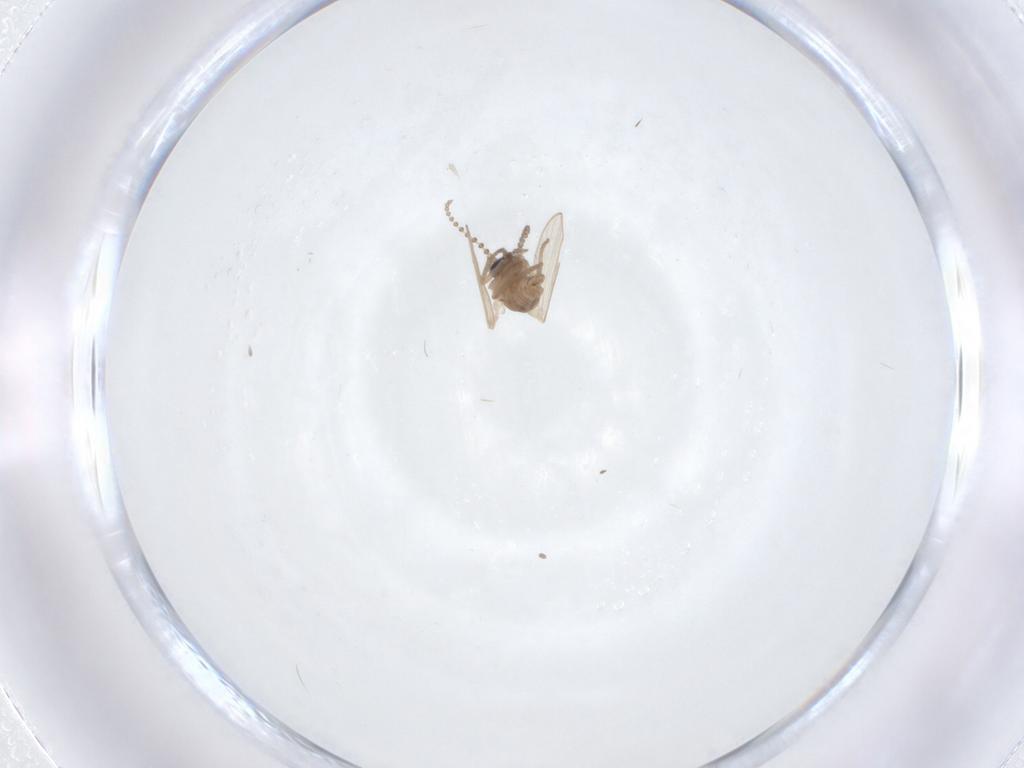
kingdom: Animalia
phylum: Arthropoda
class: Insecta
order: Diptera
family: Psychodidae
